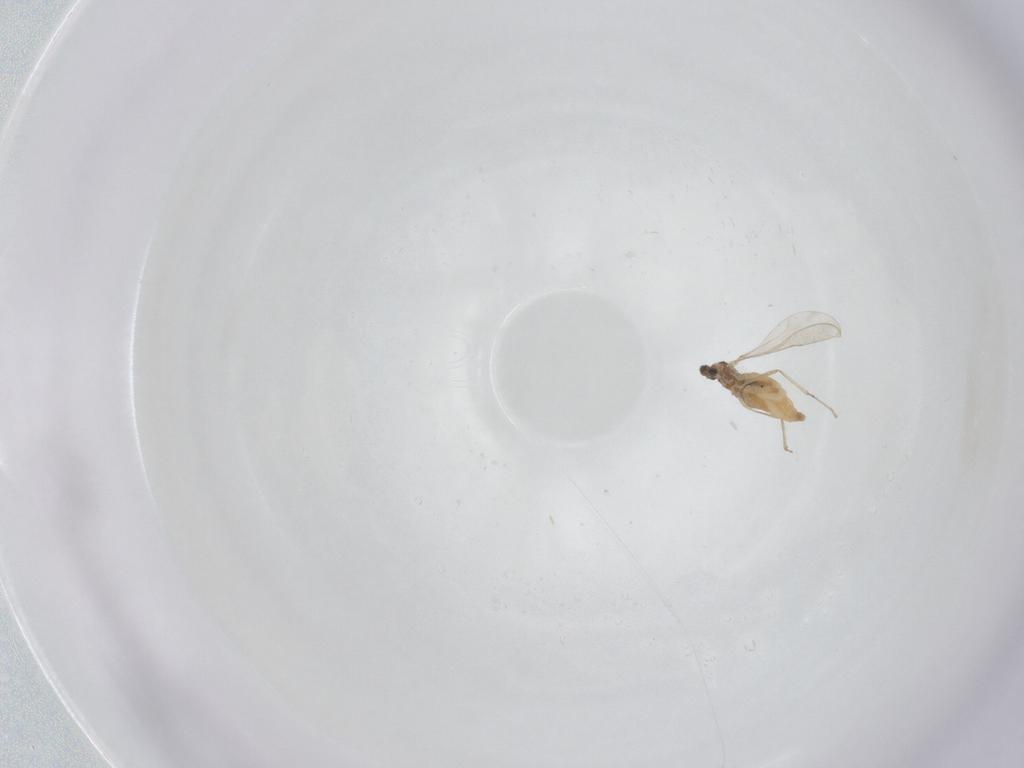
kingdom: Animalia
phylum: Arthropoda
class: Insecta
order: Diptera
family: Cecidomyiidae
